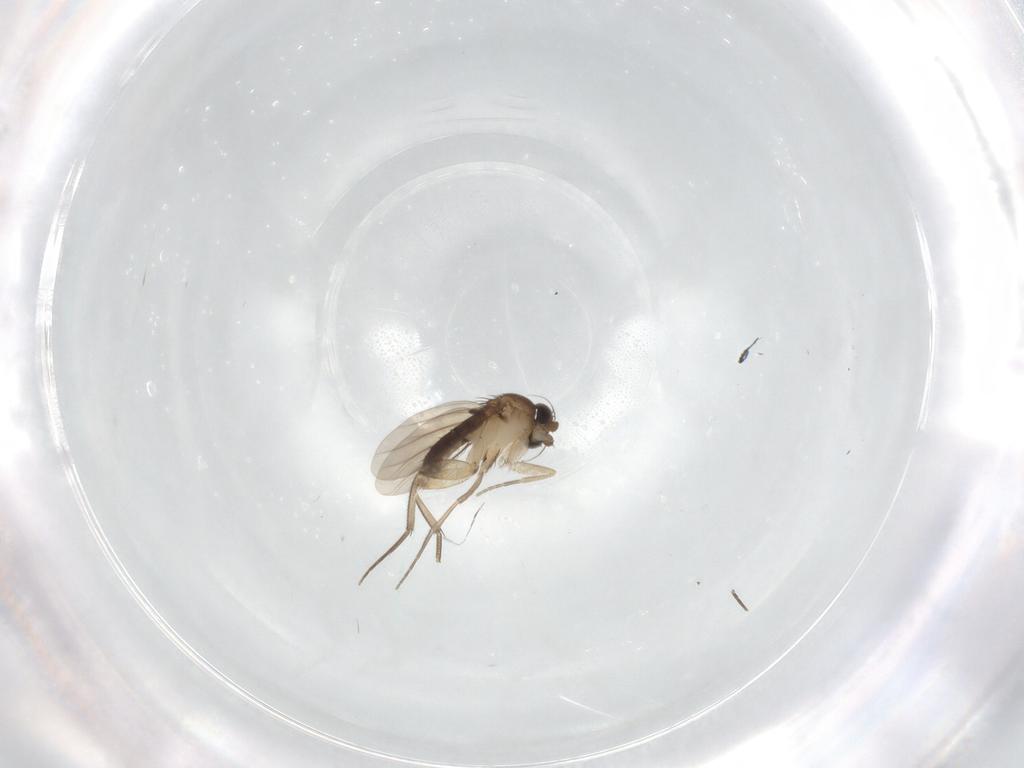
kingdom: Animalia
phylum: Arthropoda
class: Insecta
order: Diptera
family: Phoridae
